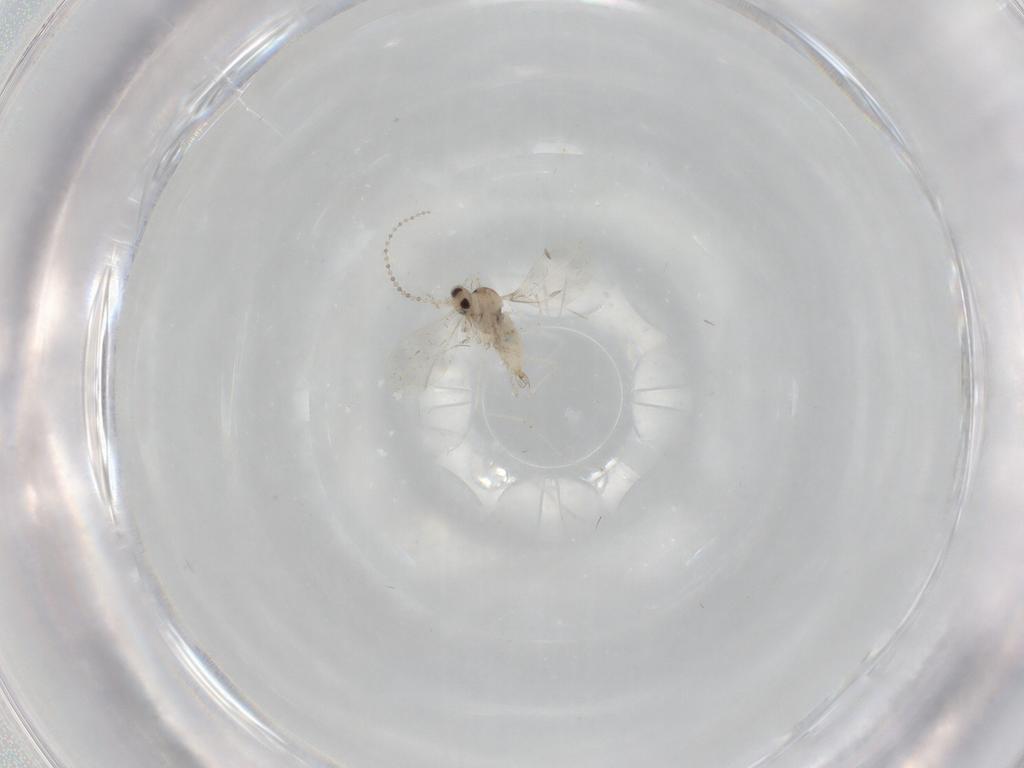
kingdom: Animalia
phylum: Arthropoda
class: Insecta
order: Diptera
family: Cecidomyiidae
